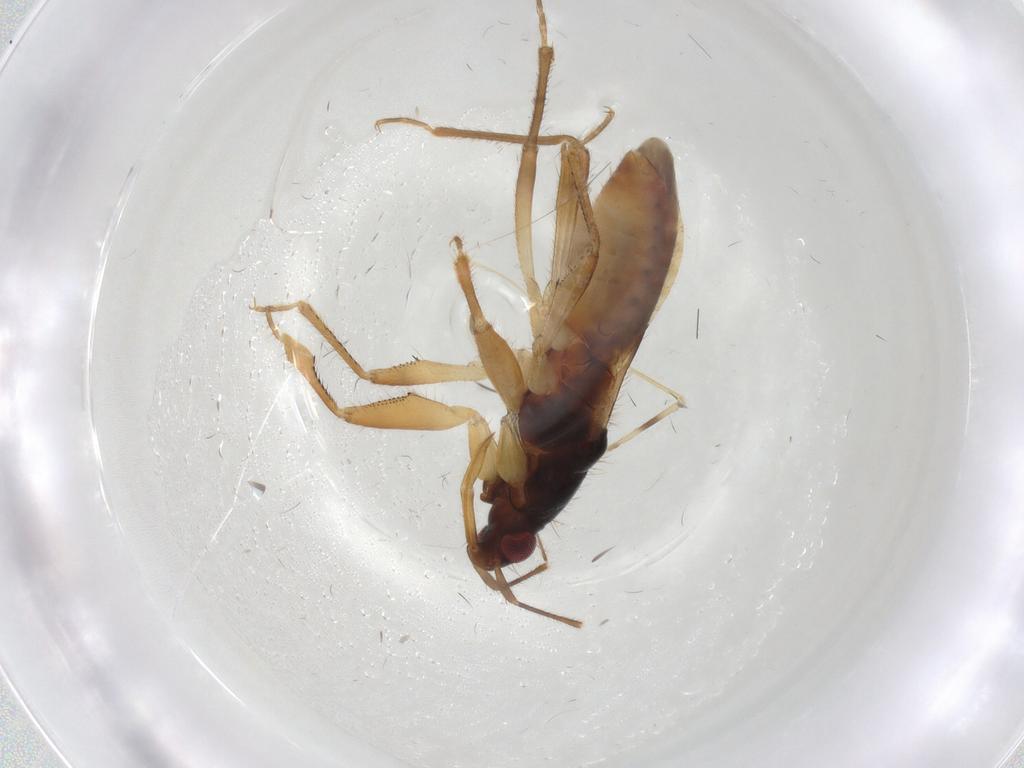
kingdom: Animalia
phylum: Arthropoda
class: Insecta
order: Hemiptera
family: Nabidae
